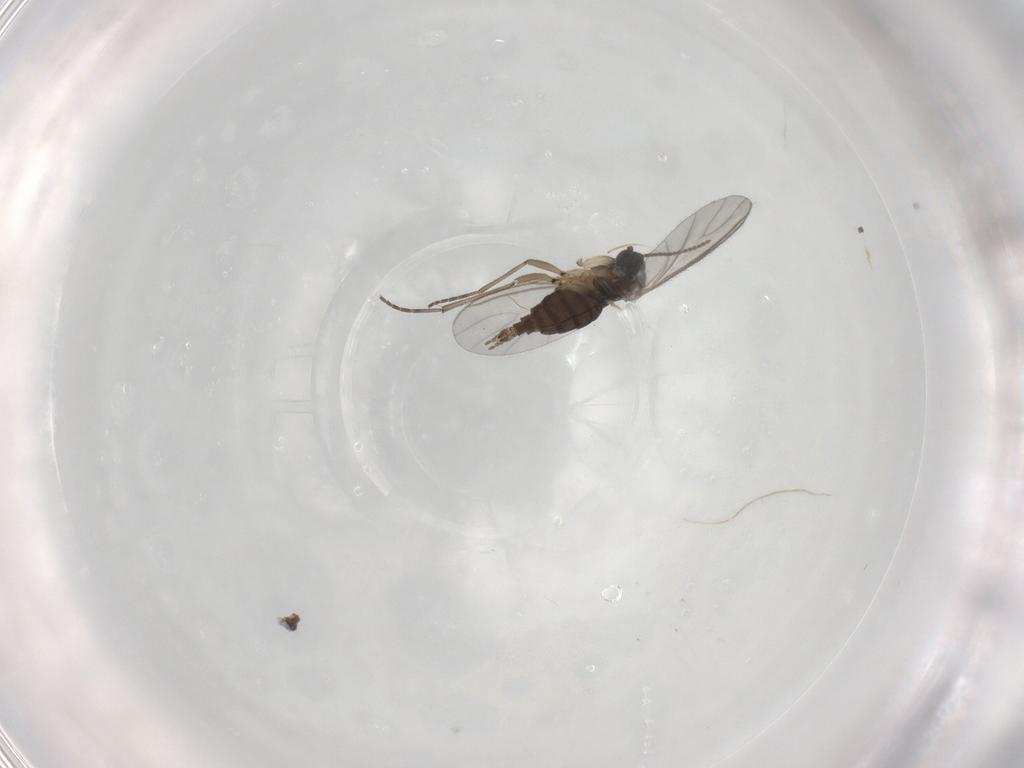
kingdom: Animalia
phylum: Arthropoda
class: Insecta
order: Diptera
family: Sciaridae
